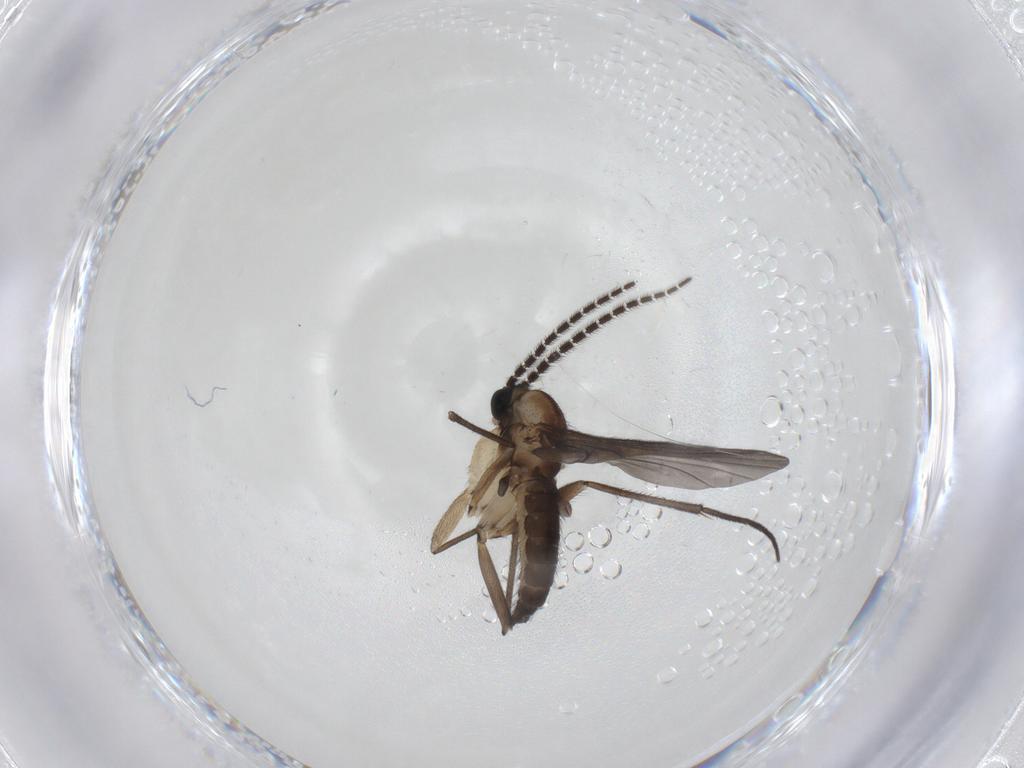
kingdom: Animalia
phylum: Arthropoda
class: Insecta
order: Diptera
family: Sciaridae
